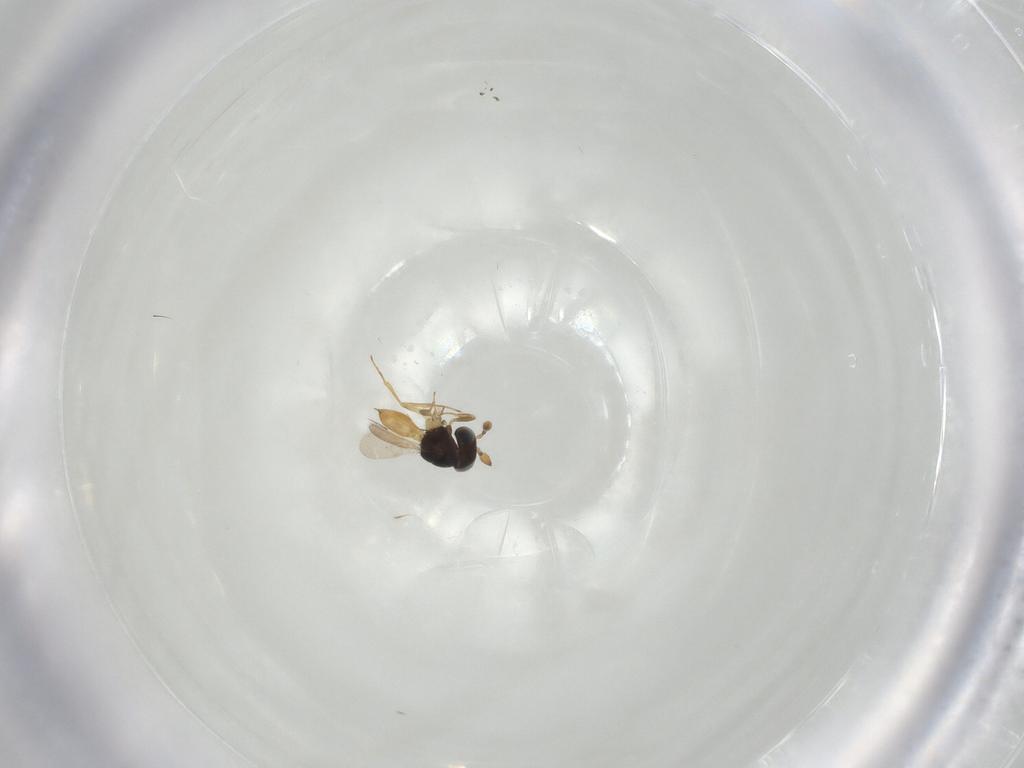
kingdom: Animalia
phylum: Arthropoda
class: Insecta
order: Hymenoptera
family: Scelionidae
